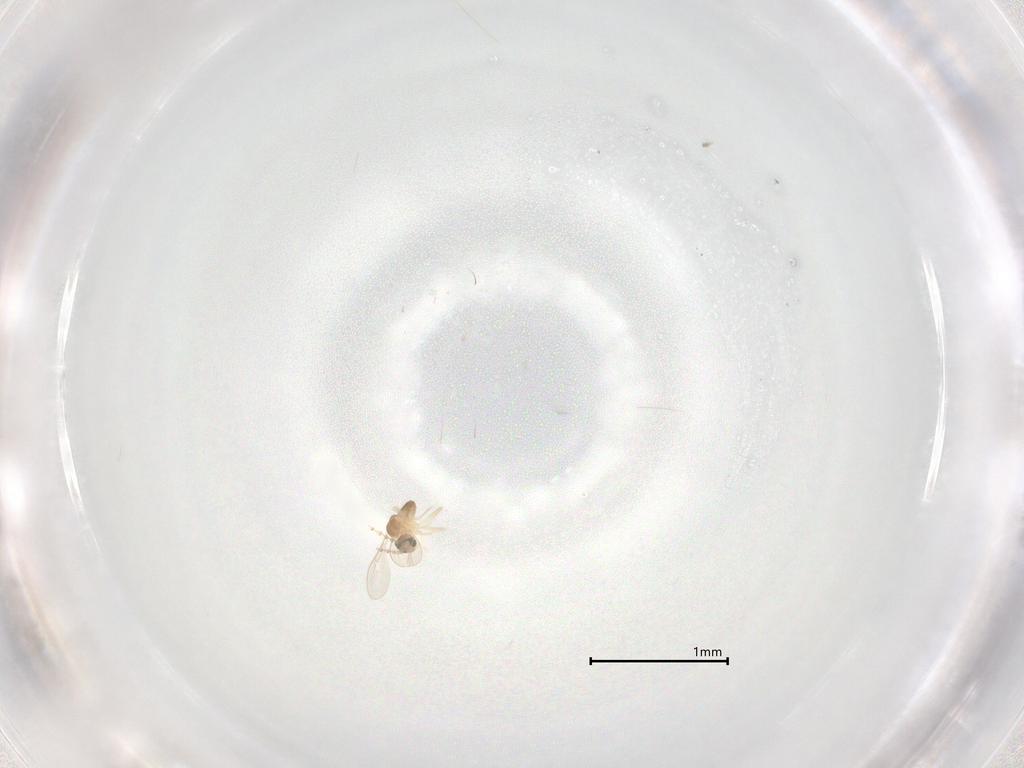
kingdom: Animalia
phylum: Arthropoda
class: Insecta
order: Diptera
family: Cecidomyiidae
